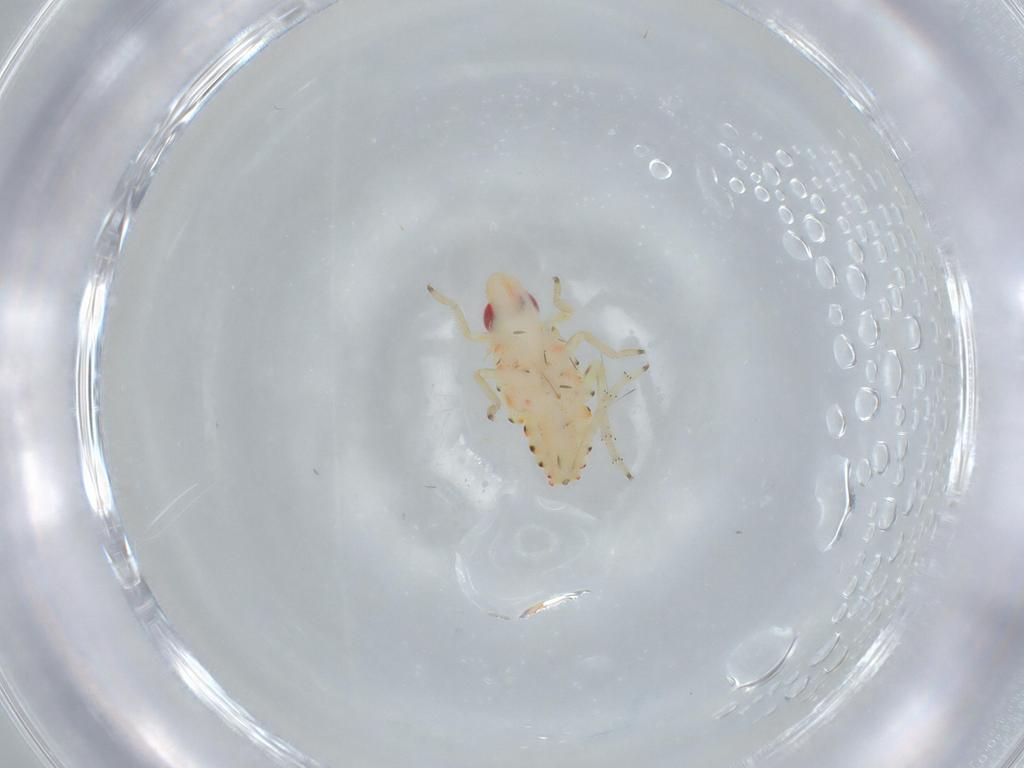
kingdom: Animalia
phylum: Arthropoda
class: Insecta
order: Hemiptera
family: Tropiduchidae
